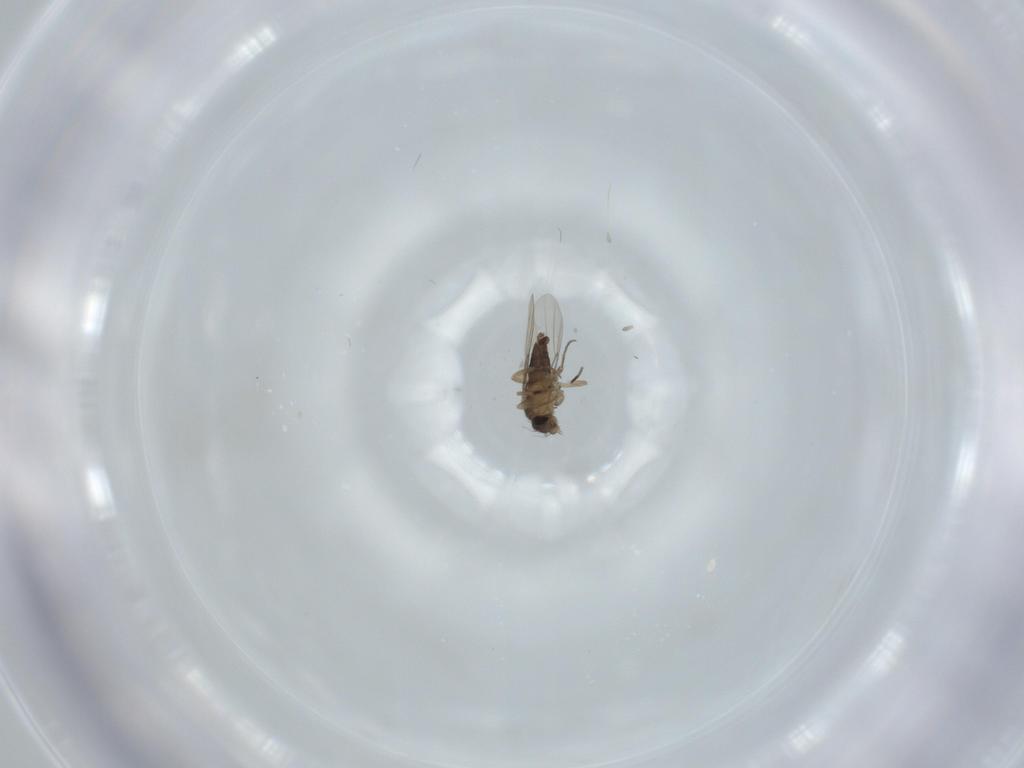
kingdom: Animalia
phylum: Arthropoda
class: Insecta
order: Diptera
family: Phoridae
